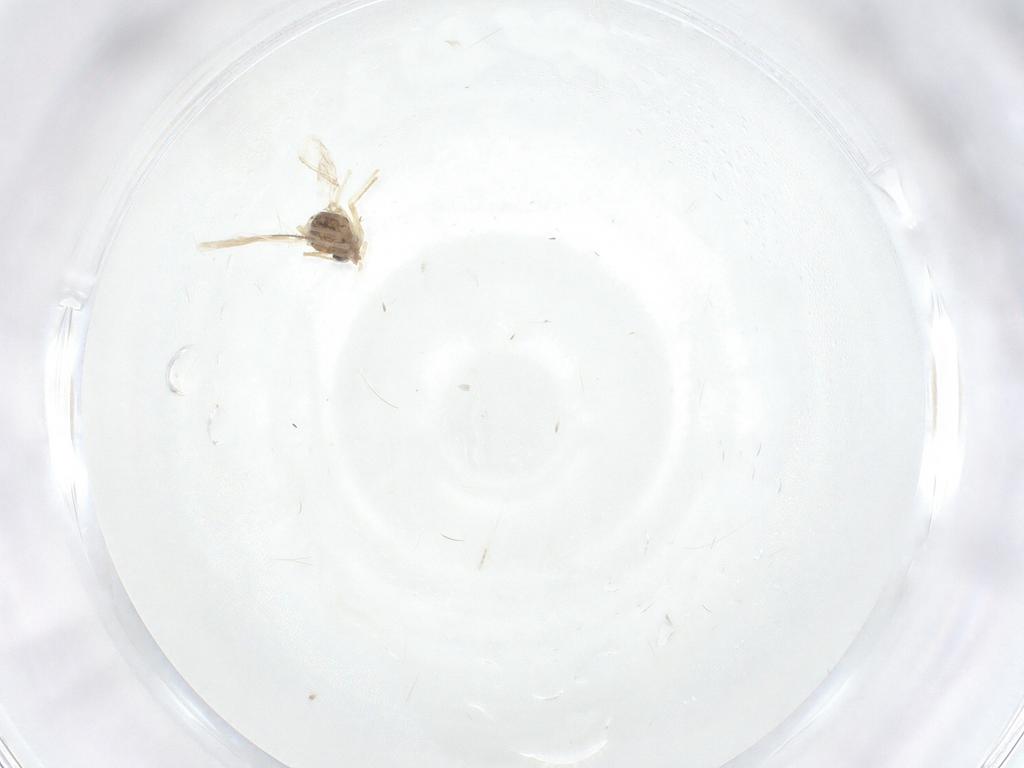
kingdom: Animalia
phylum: Arthropoda
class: Insecta
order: Diptera
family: Chironomidae
